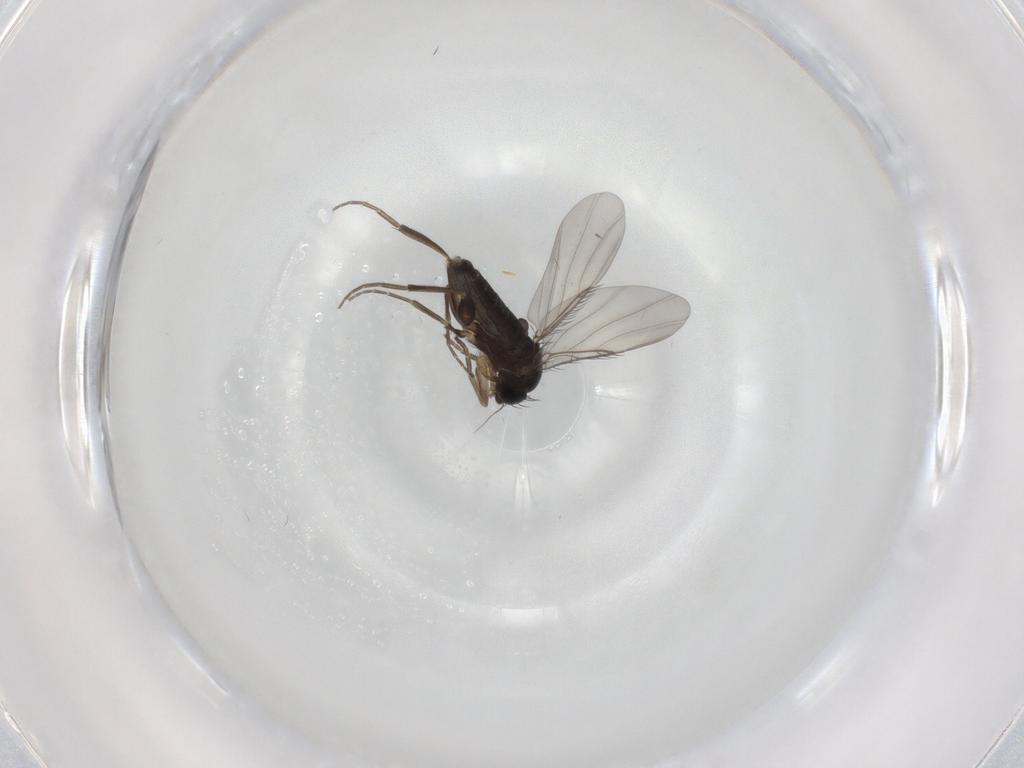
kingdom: Animalia
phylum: Arthropoda
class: Insecta
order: Diptera
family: Phoridae
